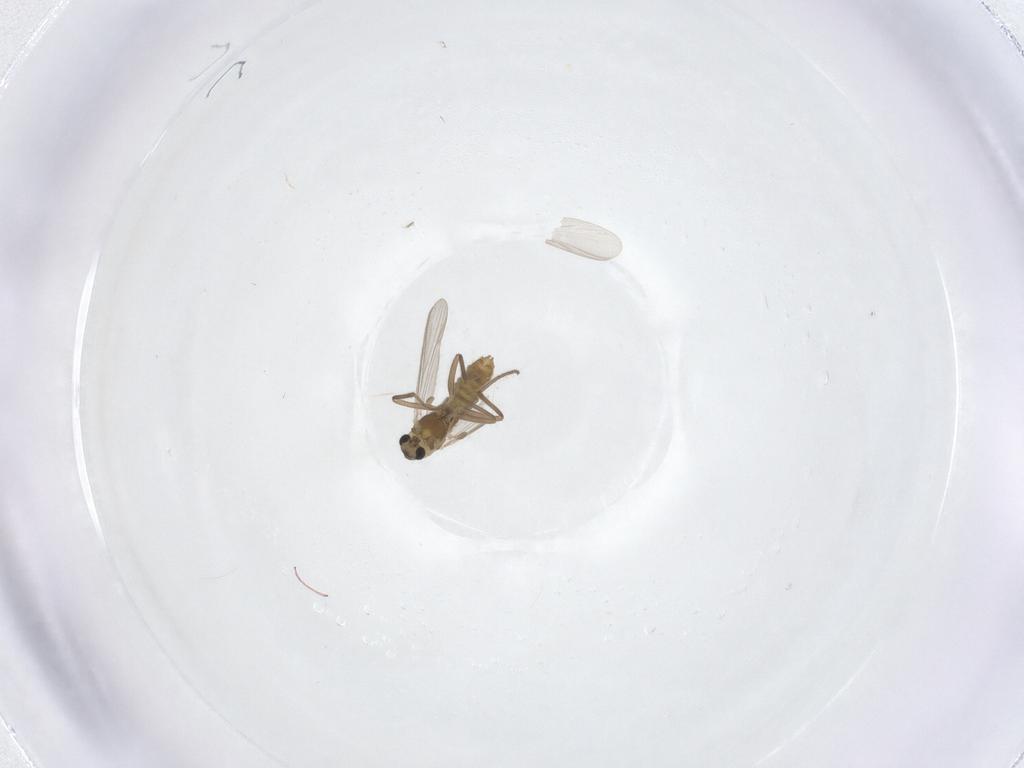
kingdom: Animalia
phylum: Arthropoda
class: Insecta
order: Diptera
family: Chironomidae
